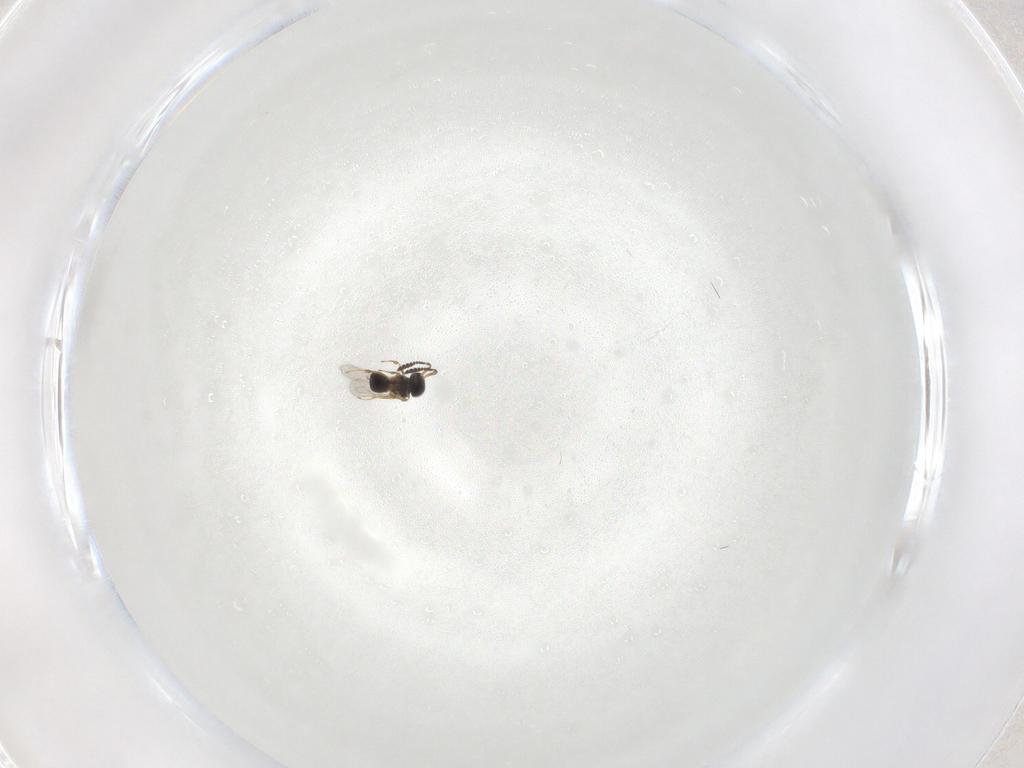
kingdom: Animalia
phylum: Arthropoda
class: Insecta
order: Hymenoptera
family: Scelionidae
